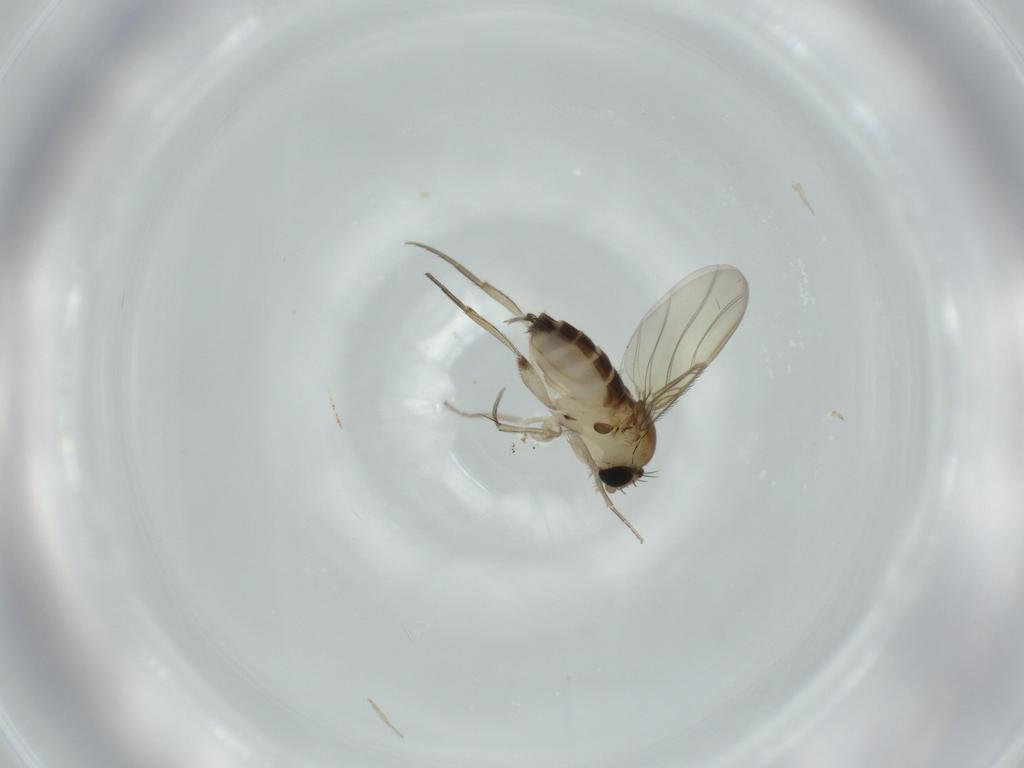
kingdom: Animalia
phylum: Arthropoda
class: Insecta
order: Diptera
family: Phoridae
